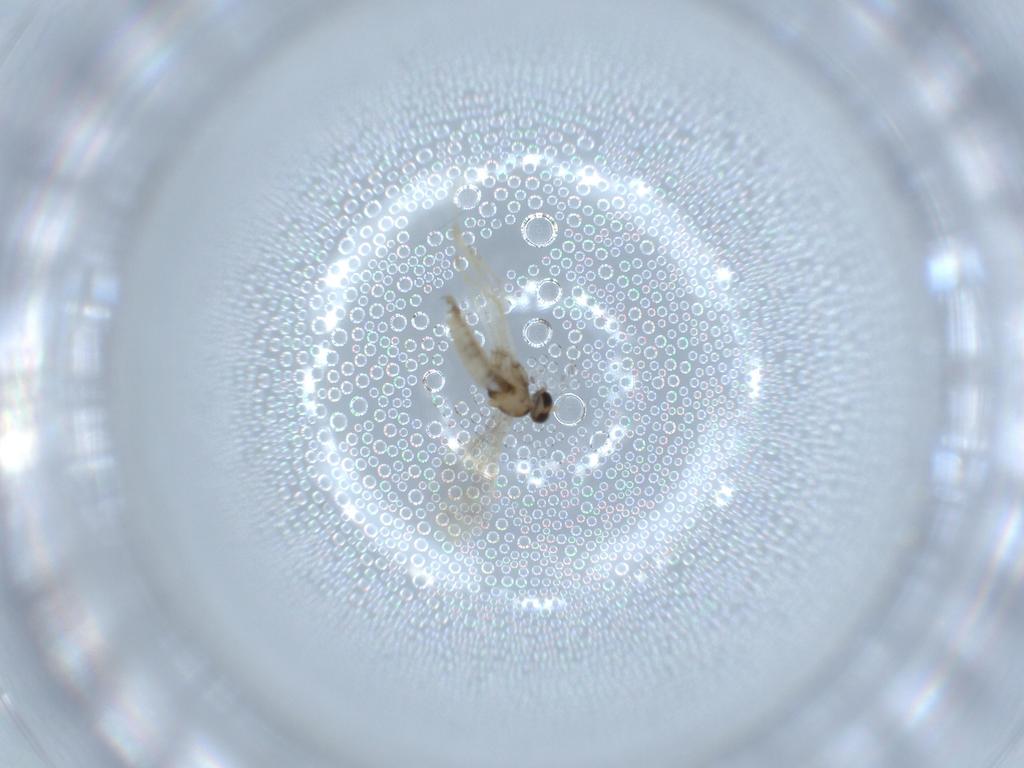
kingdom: Animalia
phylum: Arthropoda
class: Insecta
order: Diptera
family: Cecidomyiidae
